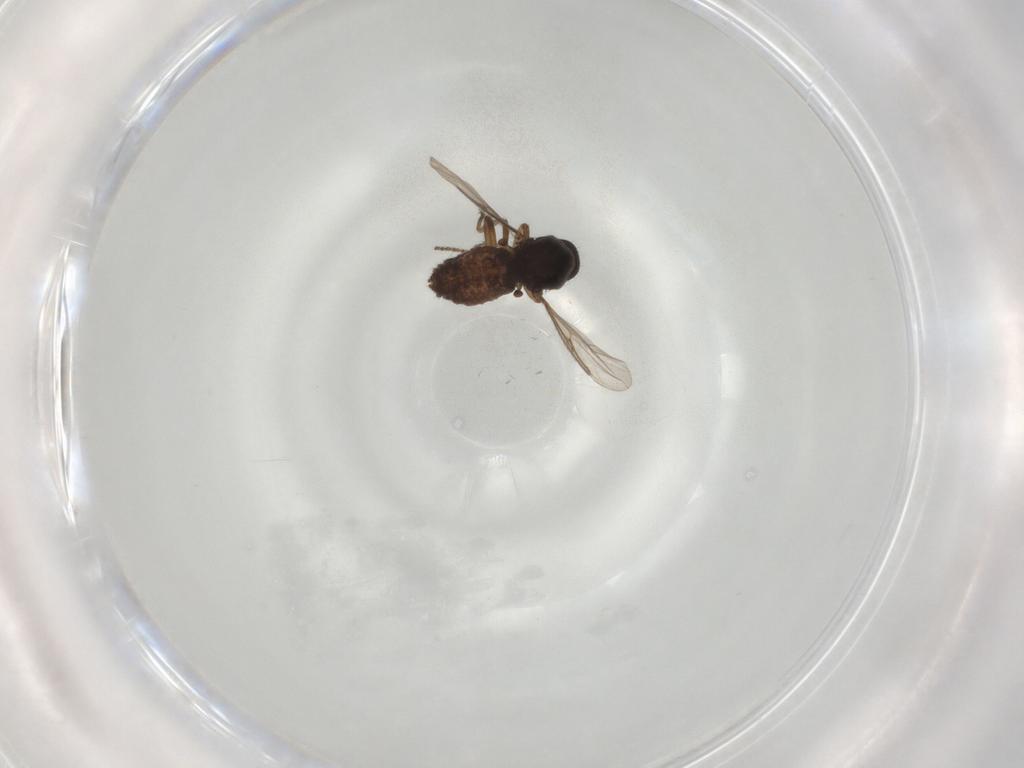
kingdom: Animalia
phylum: Arthropoda
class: Insecta
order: Diptera
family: Ceratopogonidae
